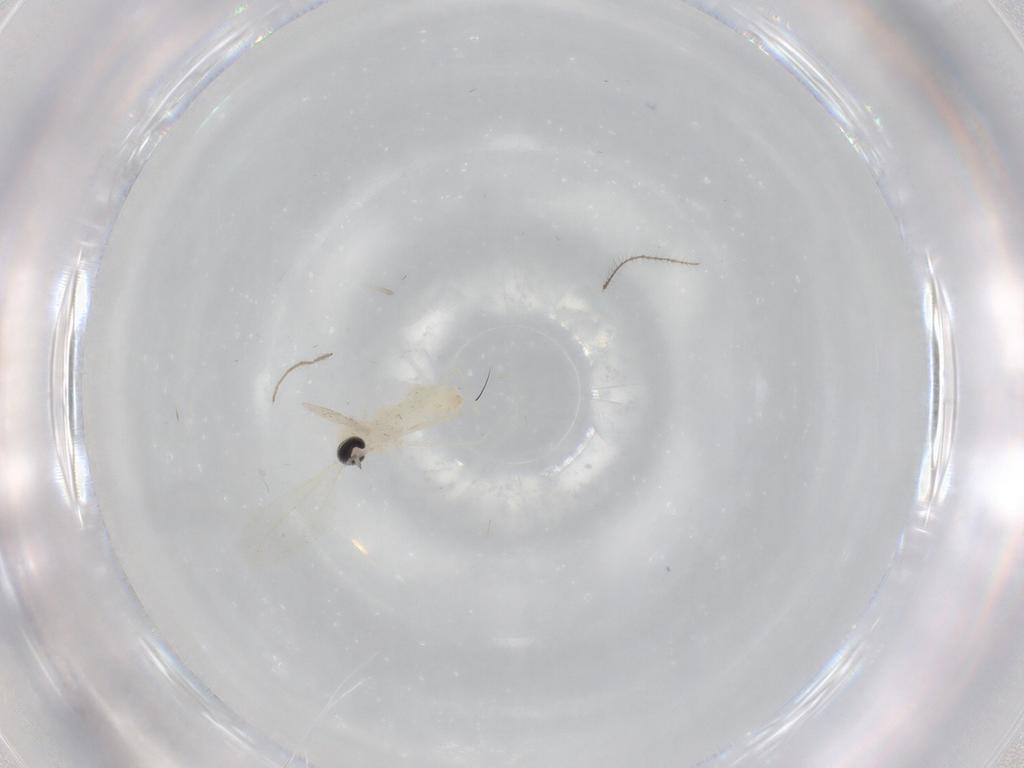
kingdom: Animalia
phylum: Arthropoda
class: Insecta
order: Diptera
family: Cecidomyiidae
